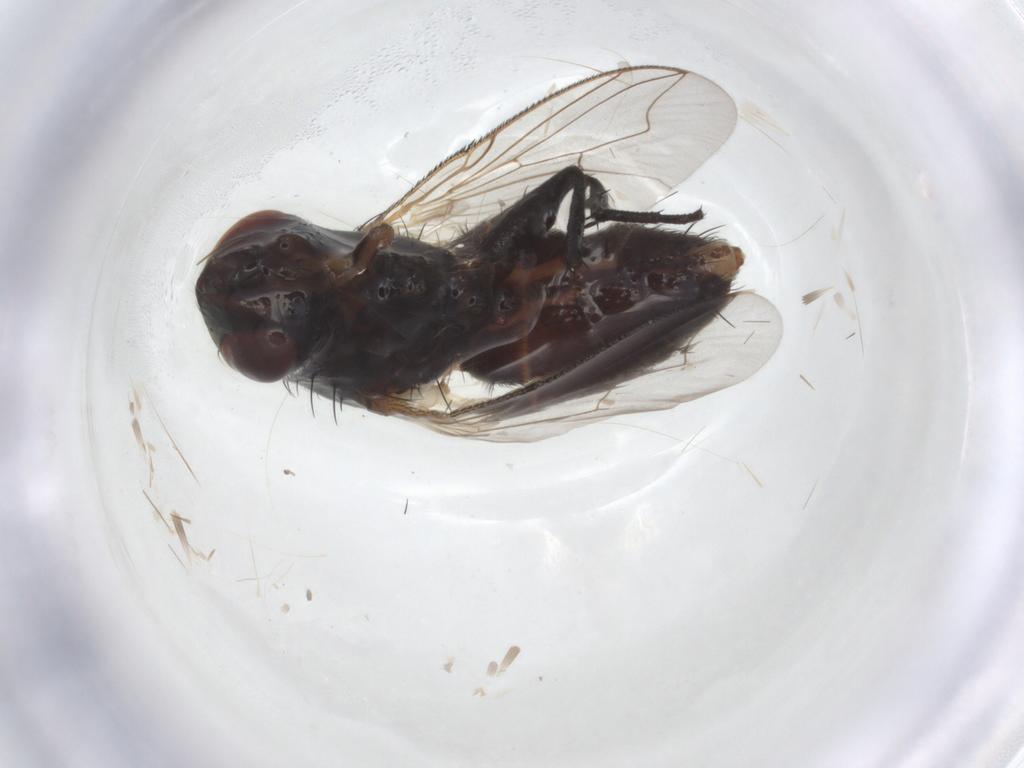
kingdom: Animalia
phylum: Arthropoda
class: Insecta
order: Diptera
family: Sarcophagidae
